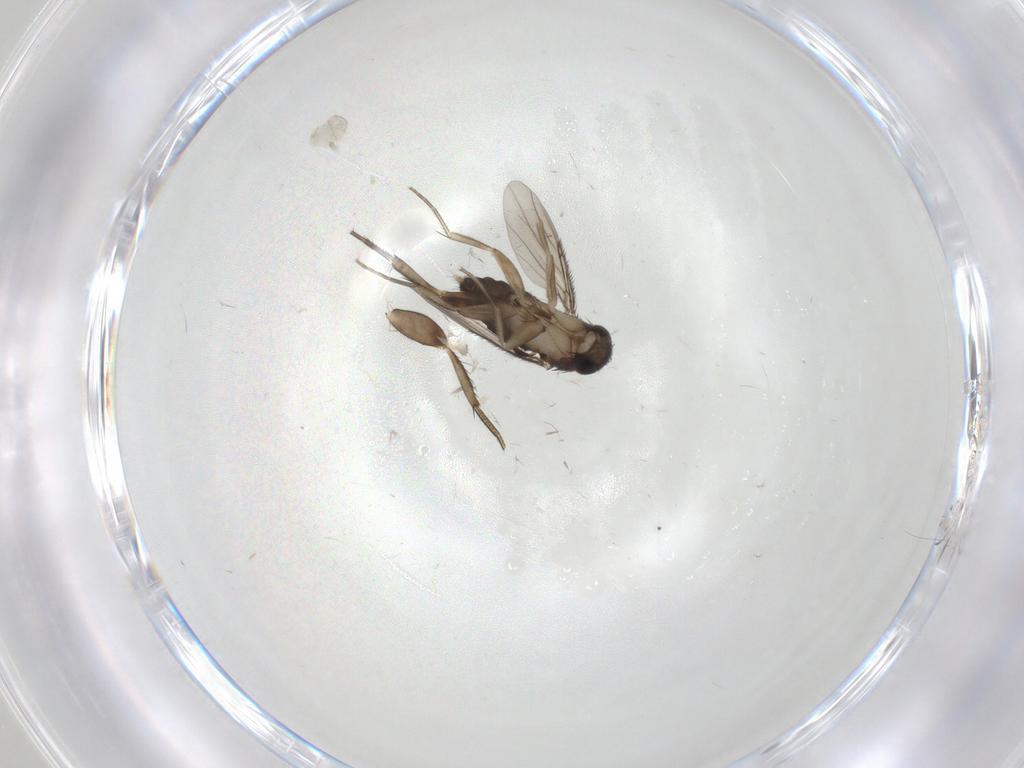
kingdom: Animalia
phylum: Arthropoda
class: Insecta
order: Diptera
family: Phoridae
